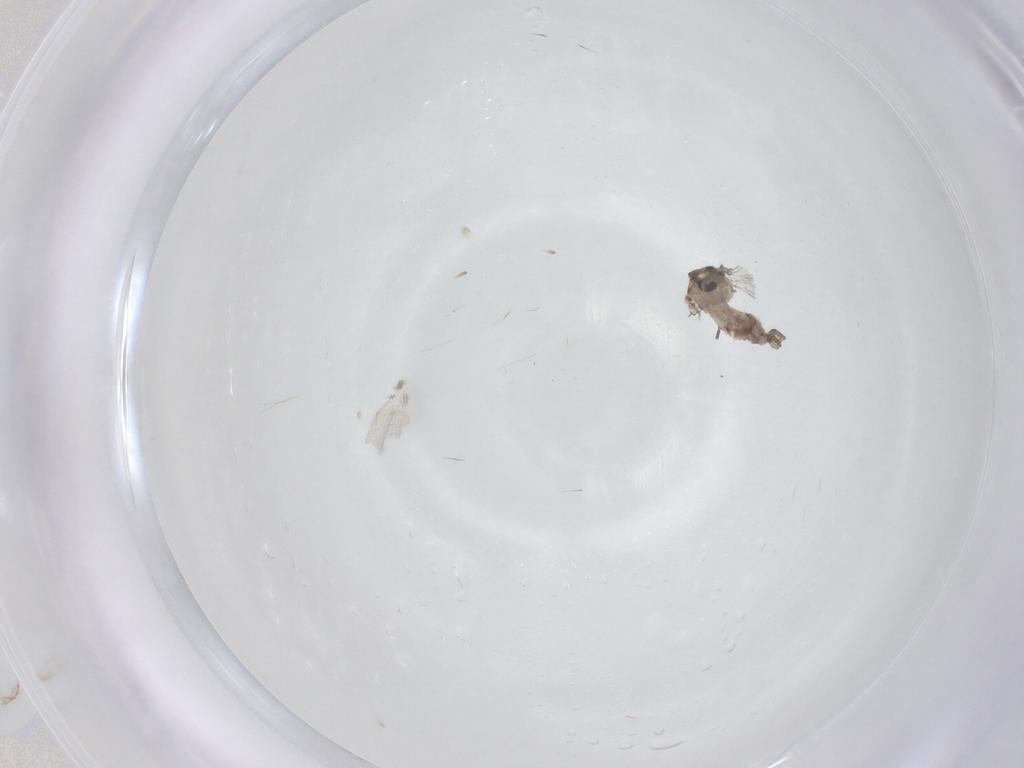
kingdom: Animalia
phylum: Arthropoda
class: Insecta
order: Diptera
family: Psychodidae
